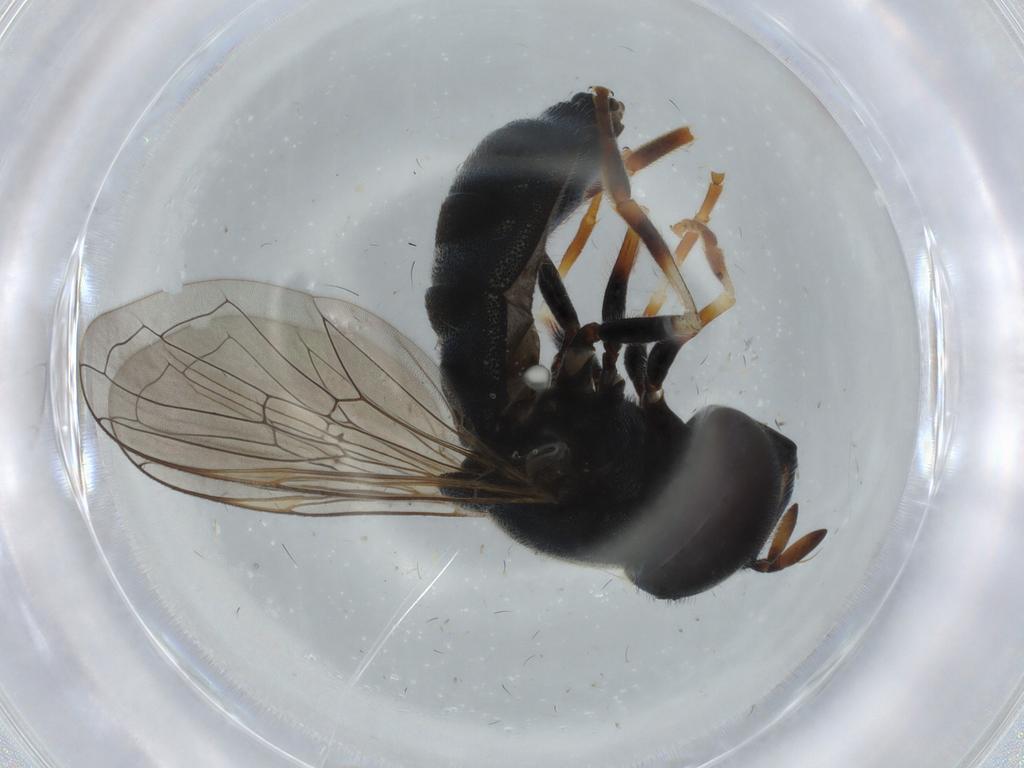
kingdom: Animalia
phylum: Arthropoda
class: Insecta
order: Diptera
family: Syrphidae
